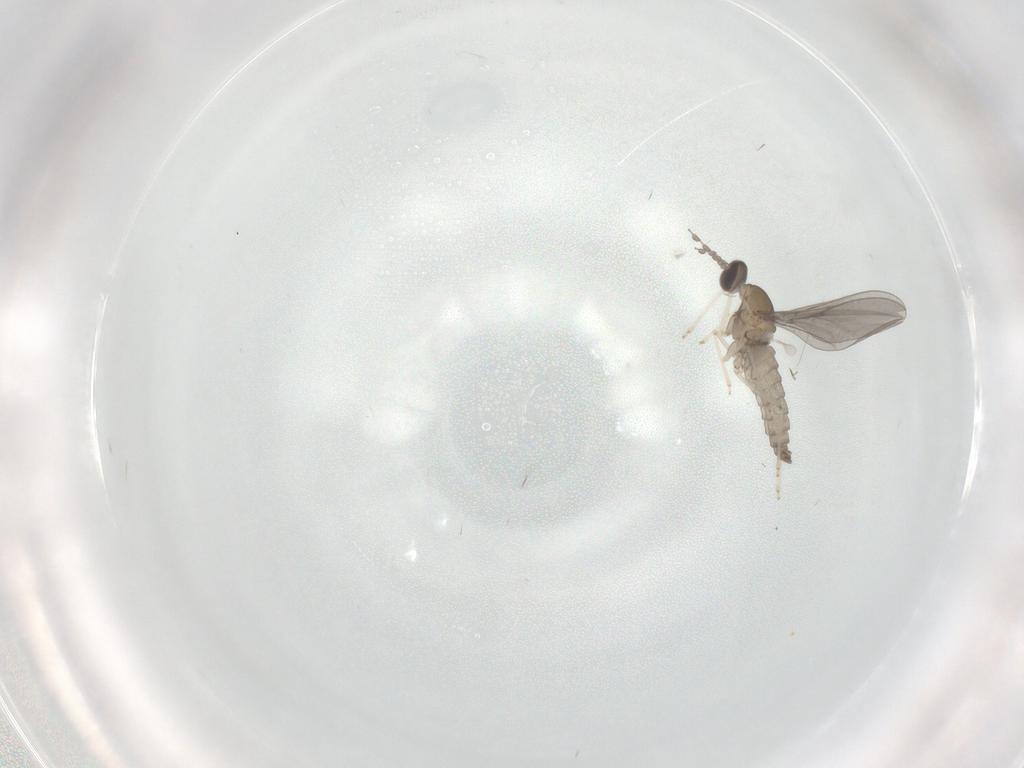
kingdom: Animalia
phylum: Arthropoda
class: Insecta
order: Diptera
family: Cecidomyiidae
